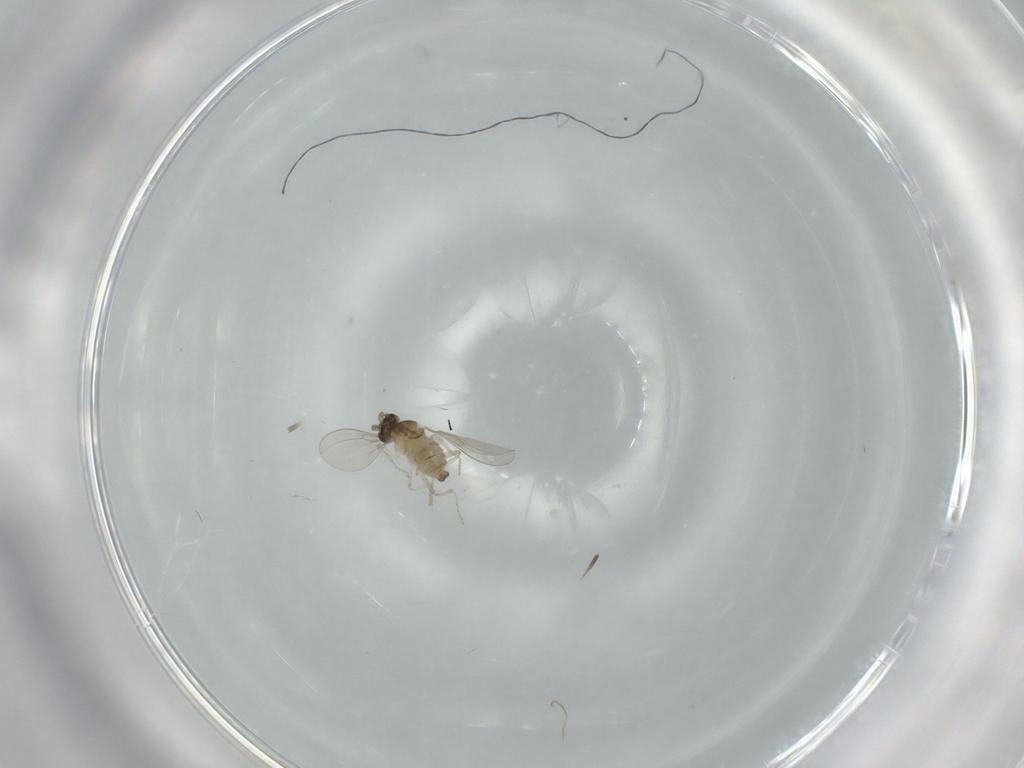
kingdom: Animalia
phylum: Arthropoda
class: Insecta
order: Diptera
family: Cecidomyiidae
